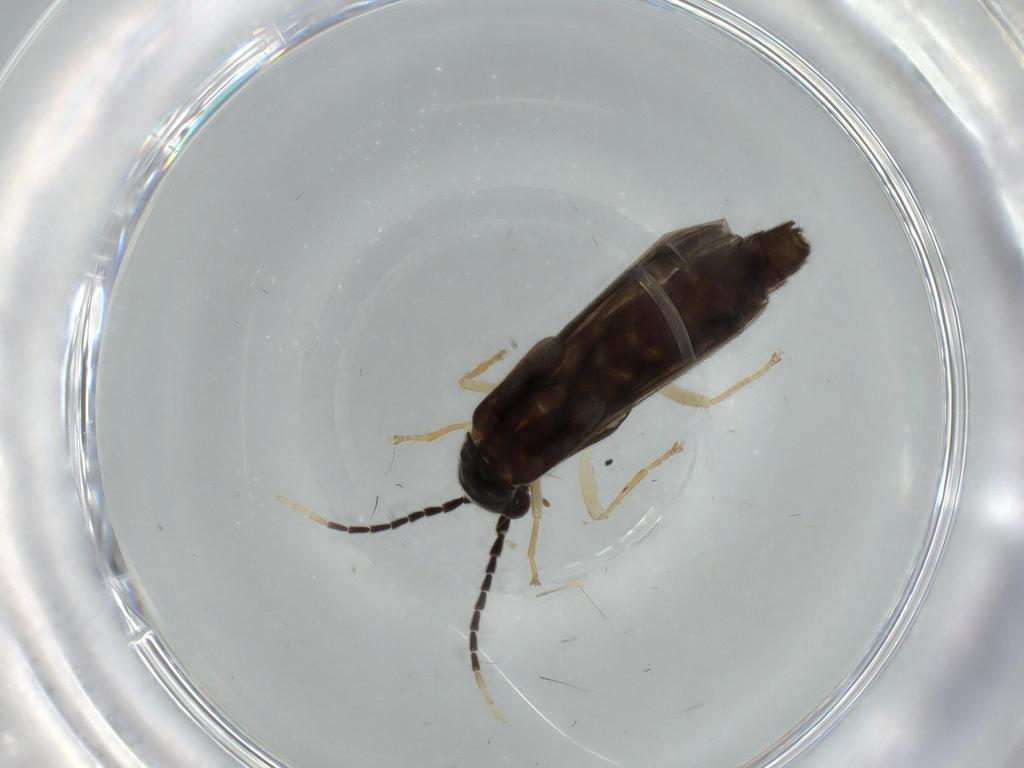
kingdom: Animalia
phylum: Arthropoda
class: Insecta
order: Coleoptera
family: Cantharidae
